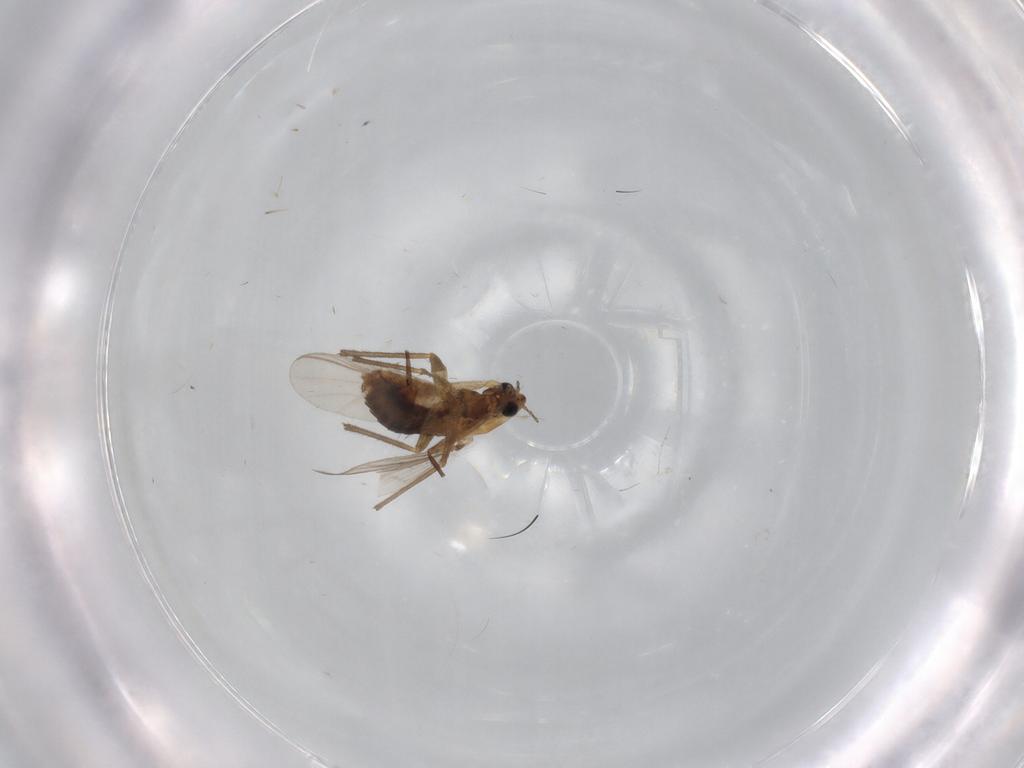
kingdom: Animalia
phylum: Arthropoda
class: Insecta
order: Diptera
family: Chironomidae
